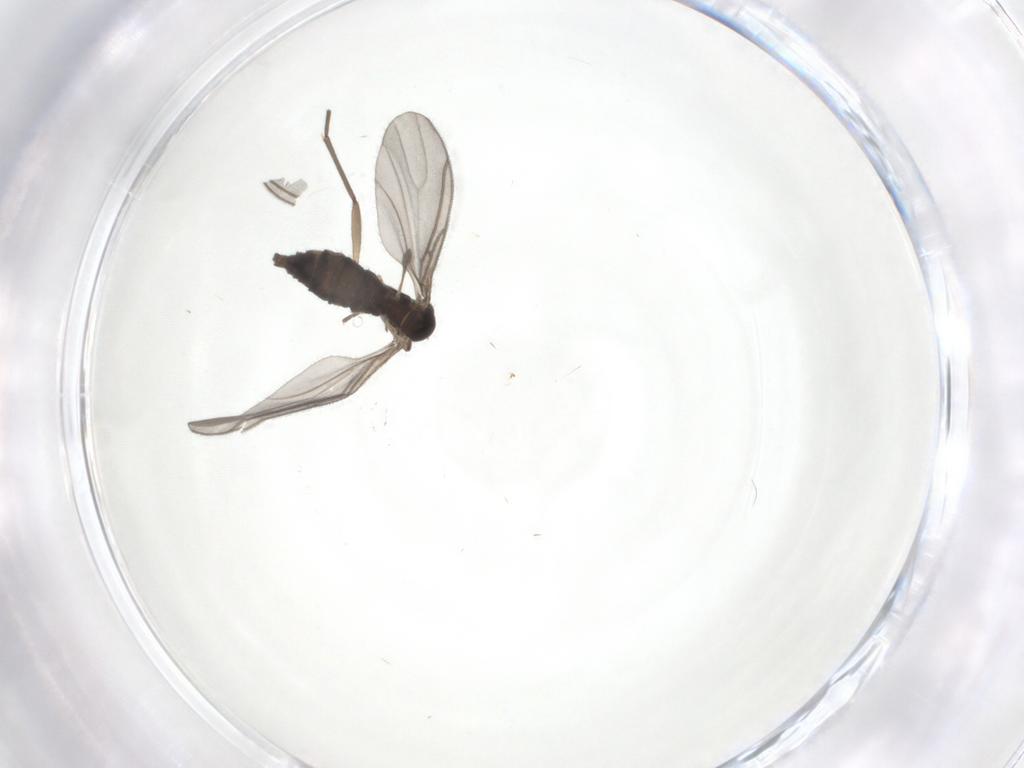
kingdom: Animalia
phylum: Arthropoda
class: Insecta
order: Diptera
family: Sciaridae
